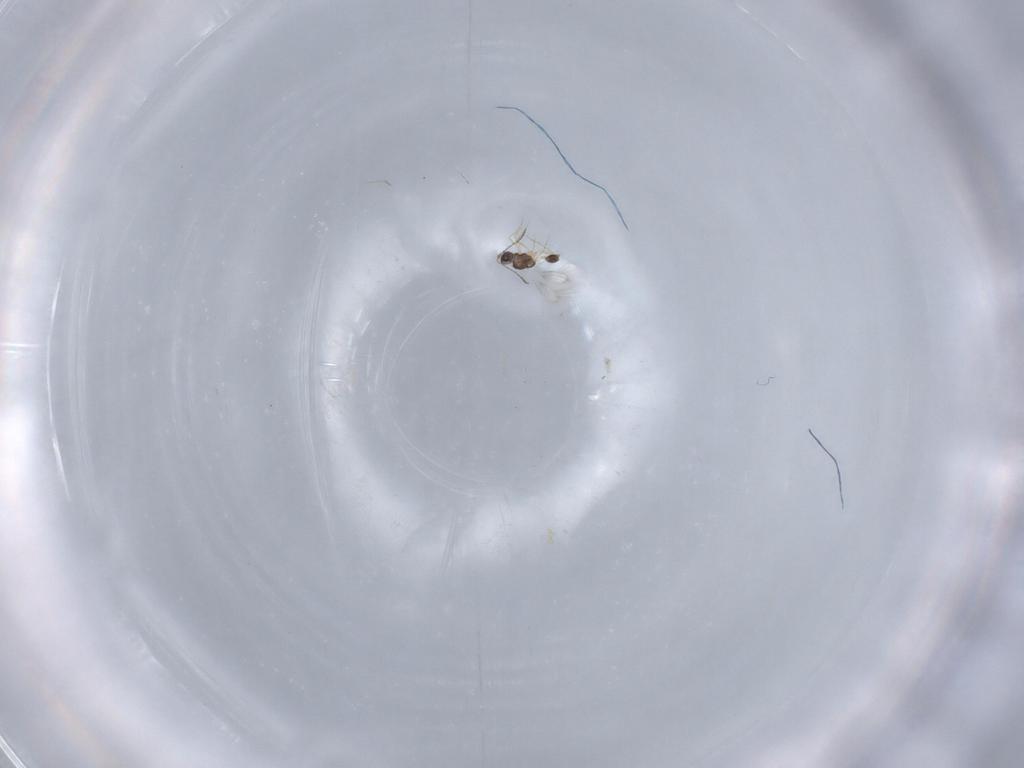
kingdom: Animalia
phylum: Arthropoda
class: Insecta
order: Hymenoptera
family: Mymarommatidae
